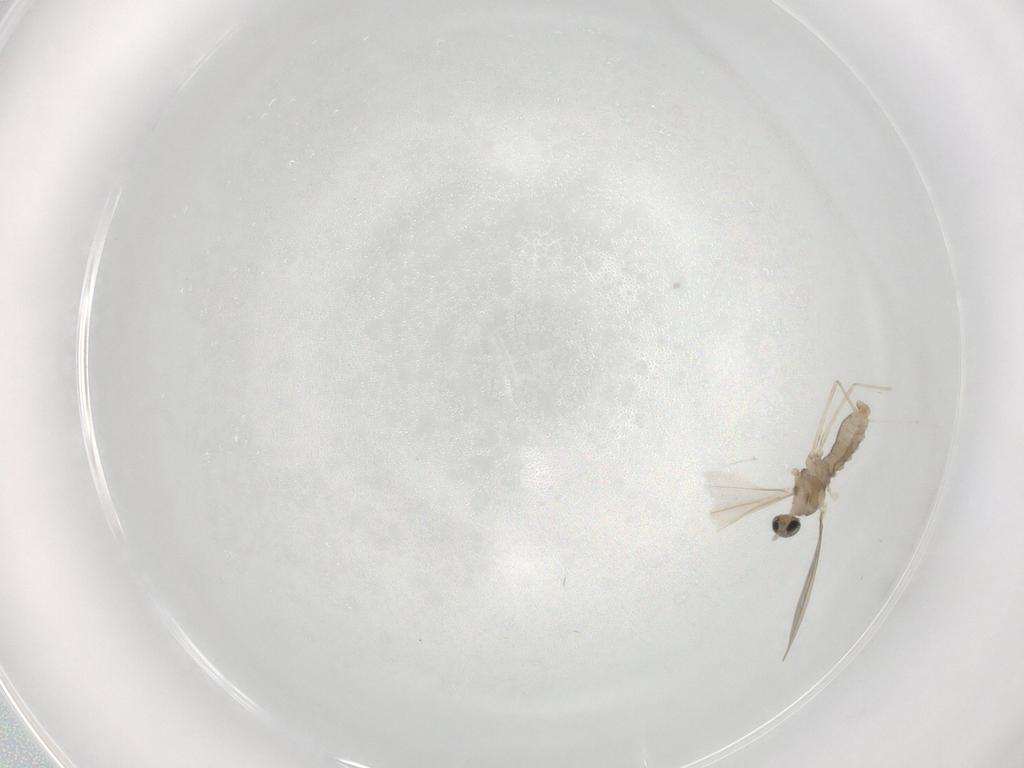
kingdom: Animalia
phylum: Arthropoda
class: Insecta
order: Diptera
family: Cecidomyiidae
